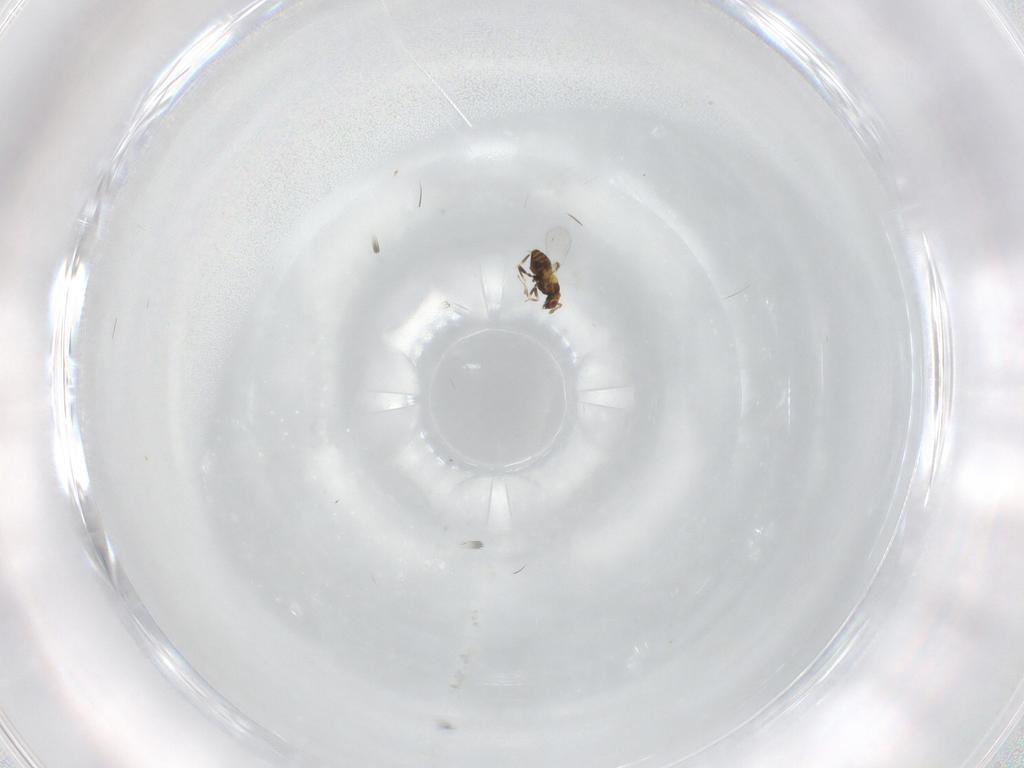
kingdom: Animalia
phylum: Arthropoda
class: Insecta
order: Hymenoptera
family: Trichogrammatidae
